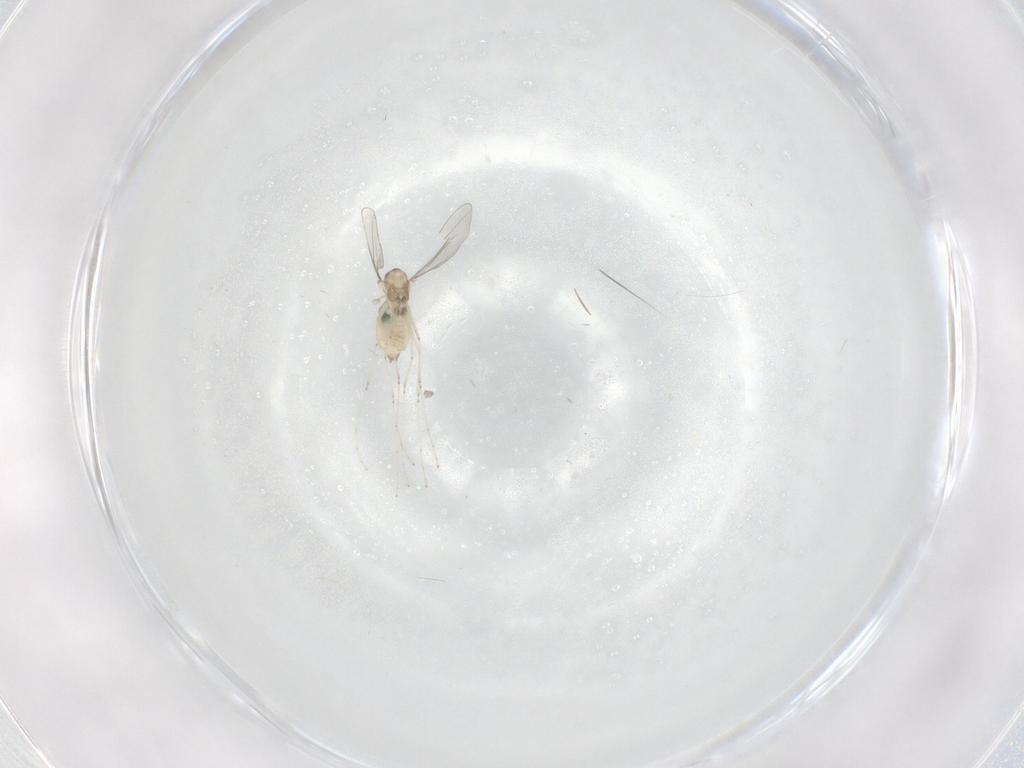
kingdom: Animalia
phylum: Arthropoda
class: Insecta
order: Diptera
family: Cecidomyiidae
